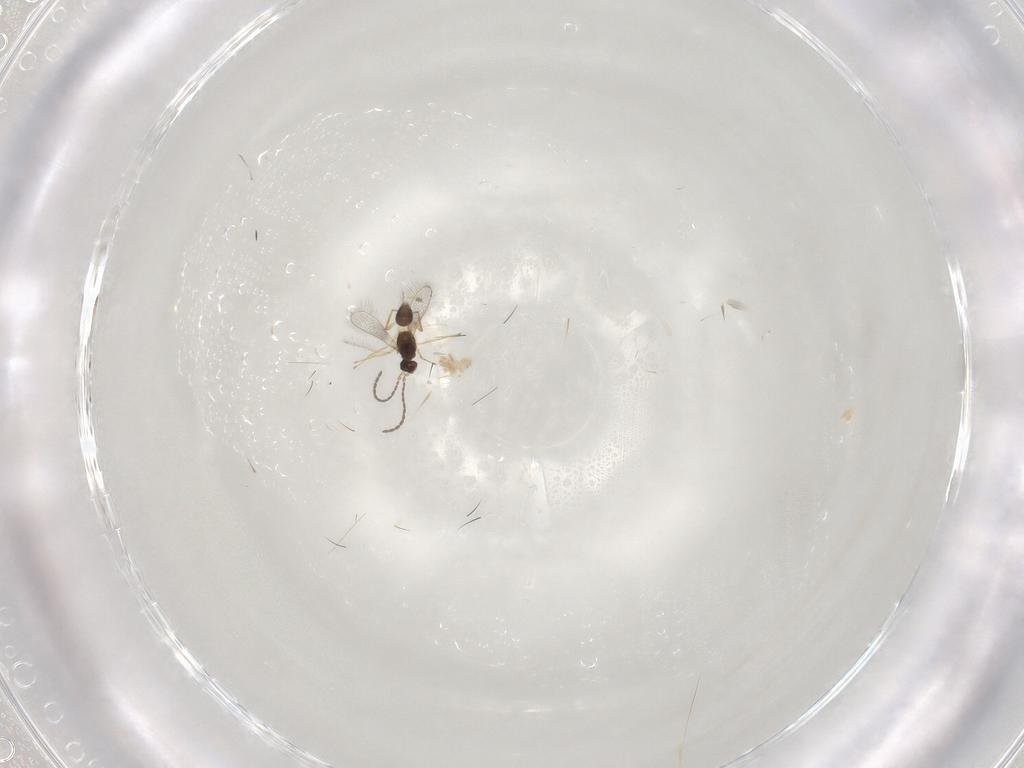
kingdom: Animalia
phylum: Arthropoda
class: Insecta
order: Hymenoptera
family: Mymaridae
